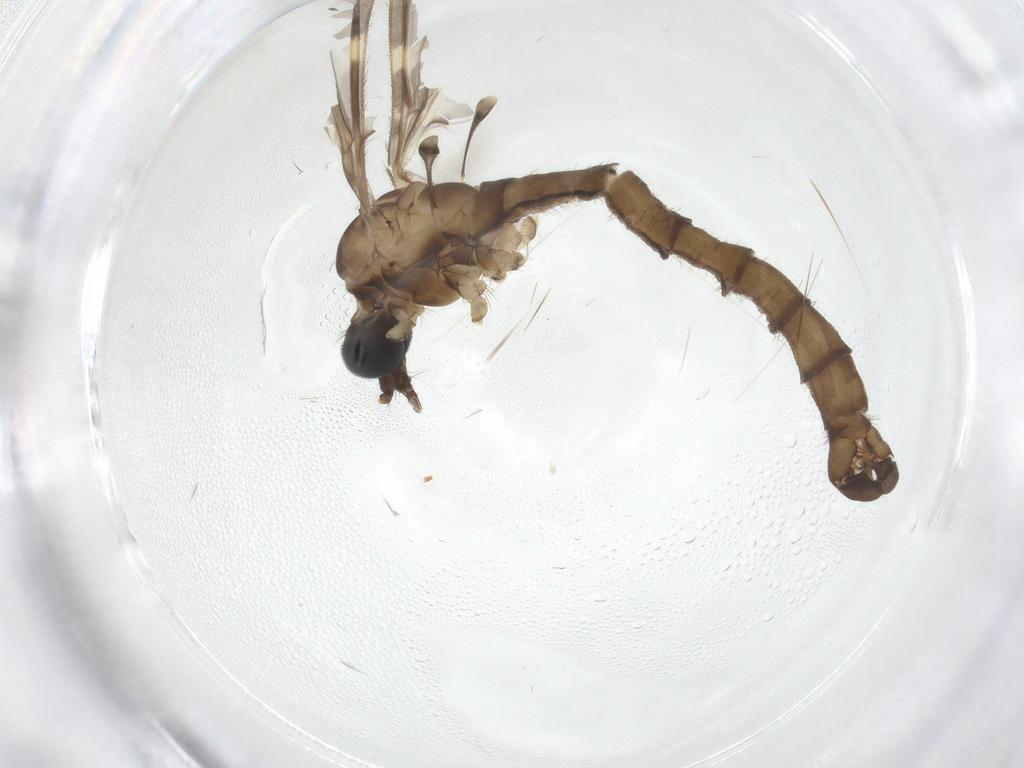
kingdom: Animalia
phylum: Arthropoda
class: Insecta
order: Diptera
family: Cecidomyiidae
